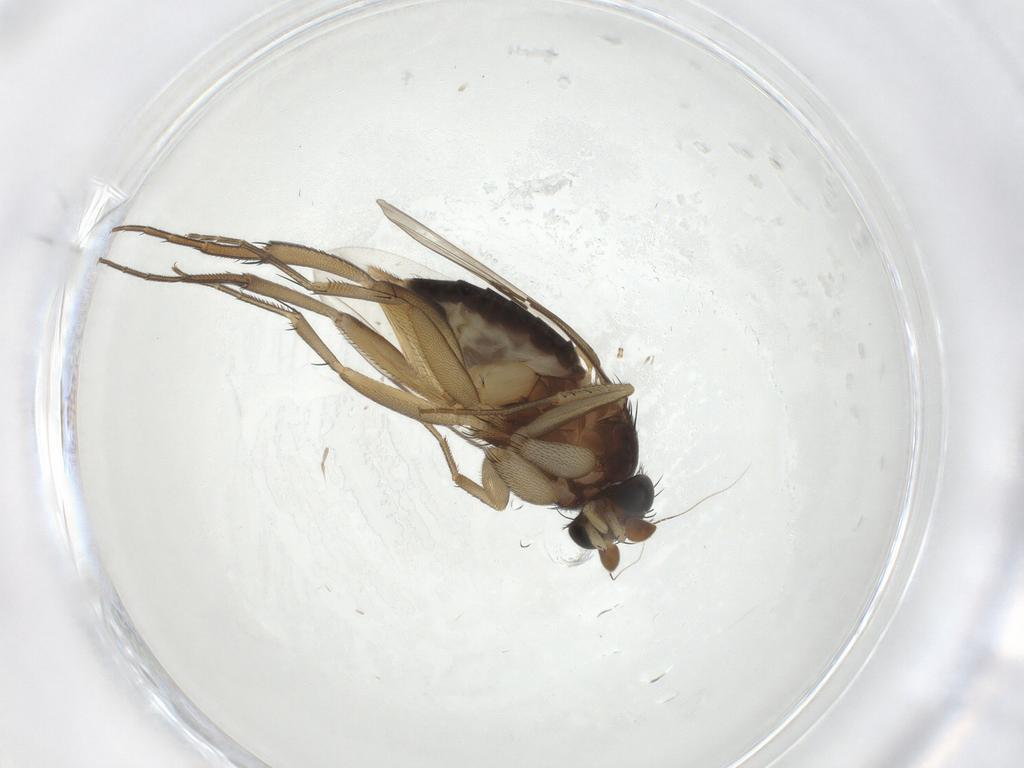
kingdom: Animalia
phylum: Arthropoda
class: Insecta
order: Diptera
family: Phoridae
